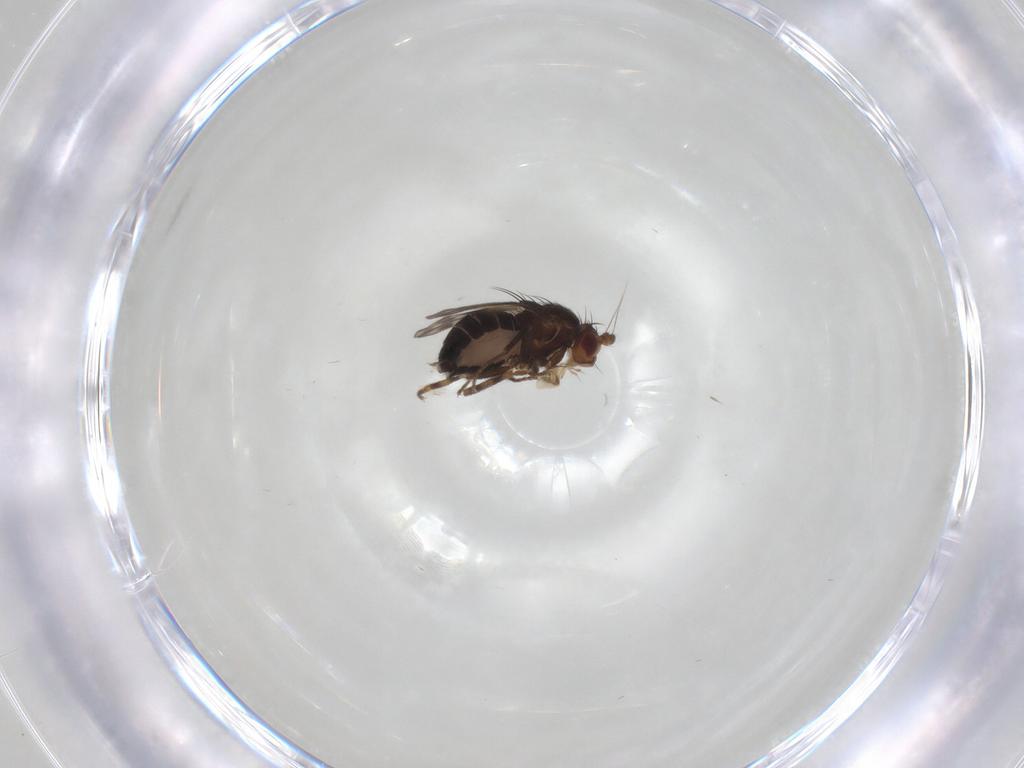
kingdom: Animalia
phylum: Arthropoda
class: Insecta
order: Diptera
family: Sphaeroceridae
